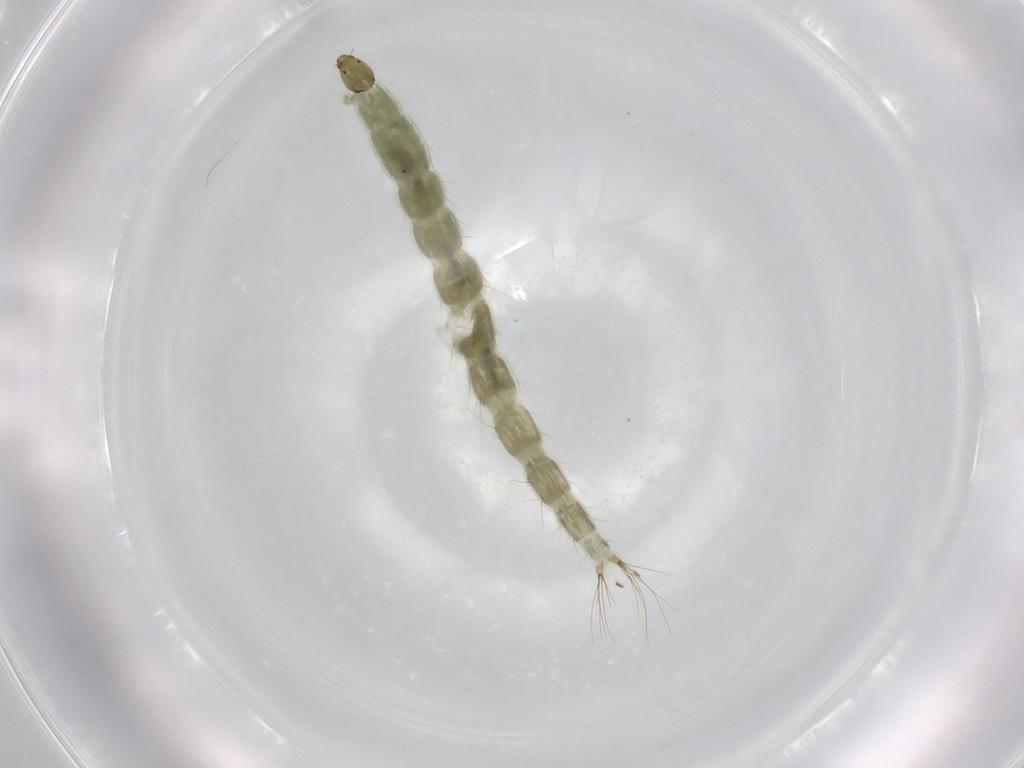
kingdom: Animalia
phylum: Arthropoda
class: Insecta
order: Diptera
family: Chironomidae
